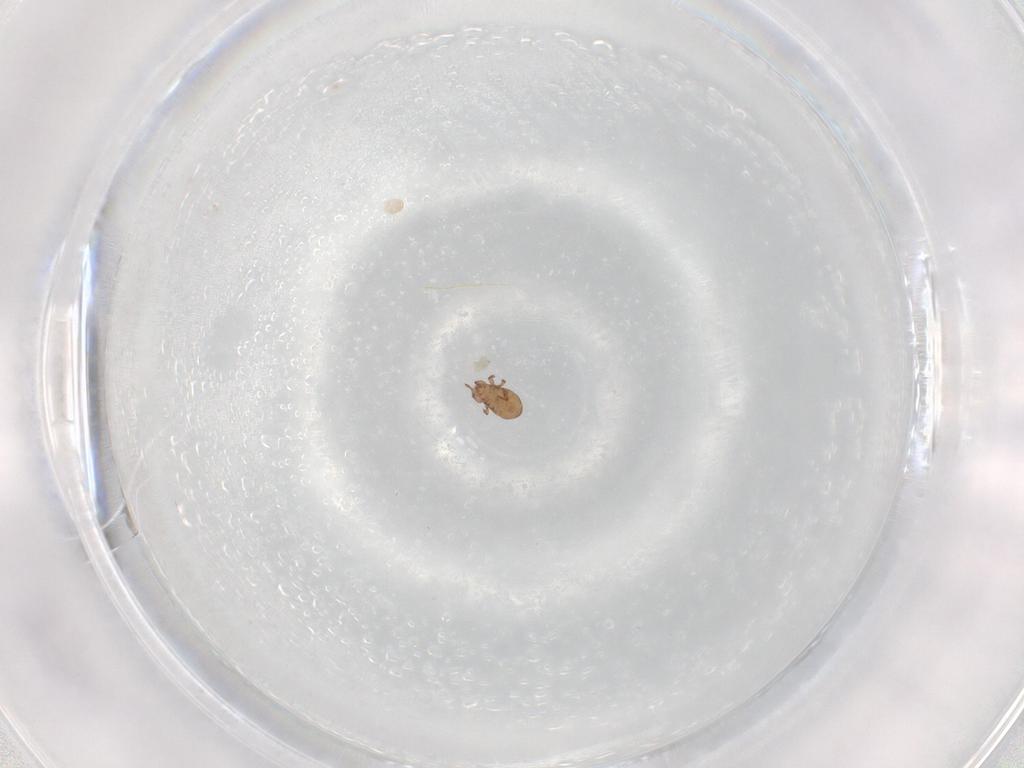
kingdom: Animalia
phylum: Arthropoda
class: Arachnida
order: Sarcoptiformes
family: Eremaeidae
